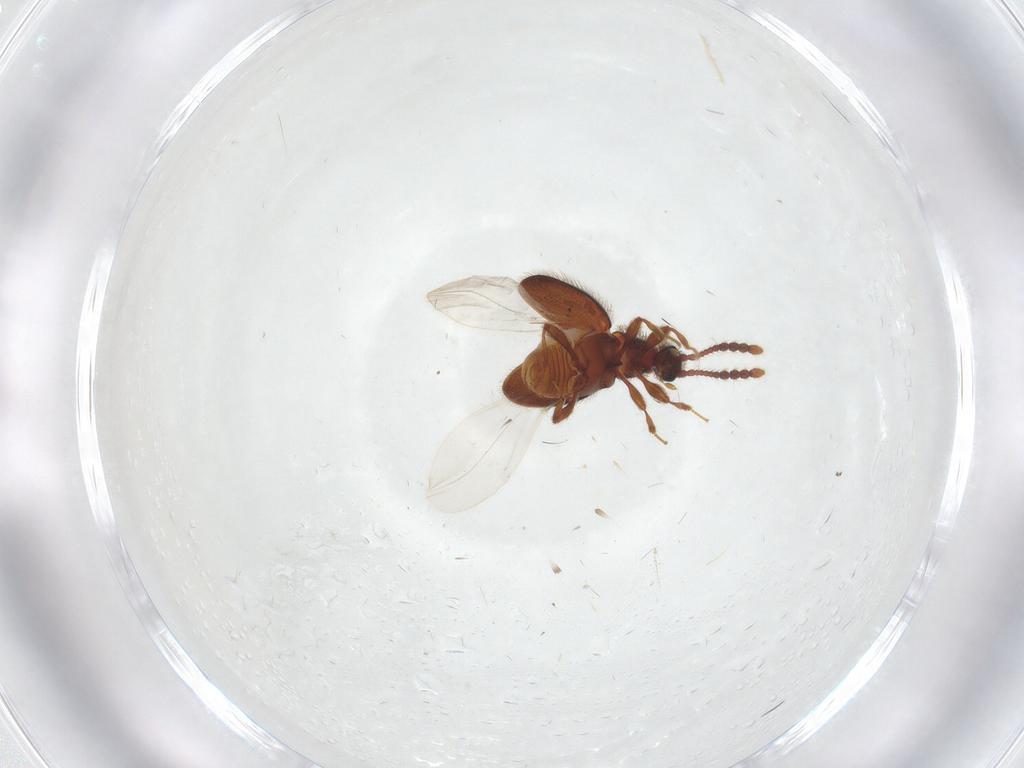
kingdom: Animalia
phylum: Arthropoda
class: Insecta
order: Coleoptera
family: Staphylinidae
